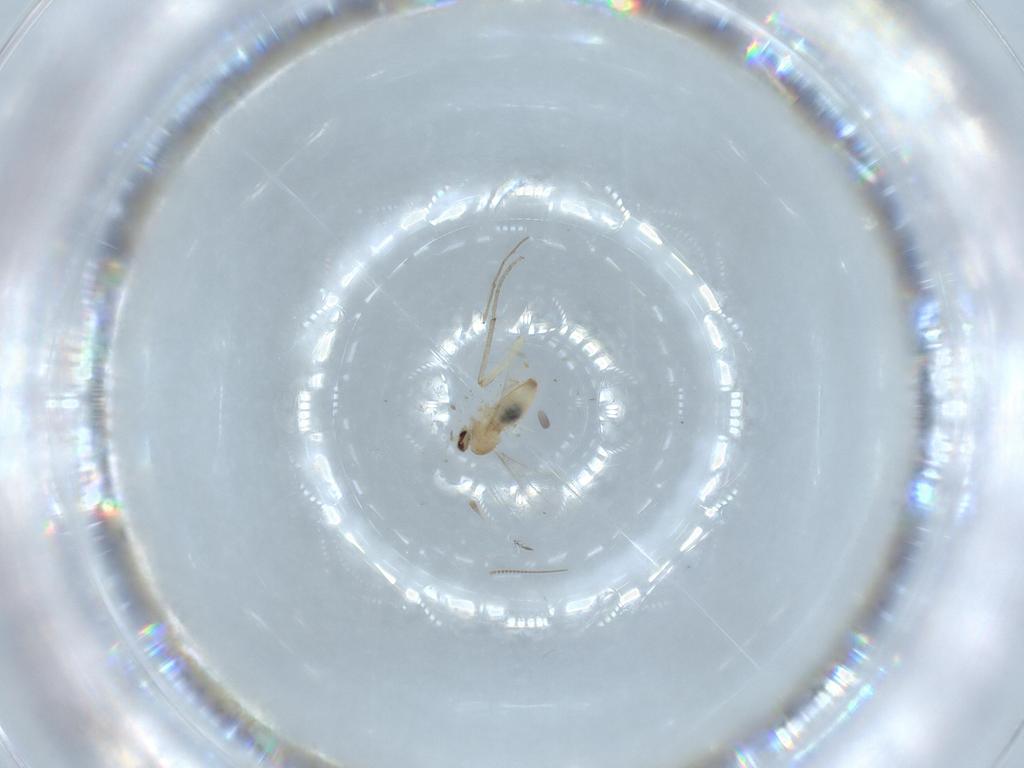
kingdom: Animalia
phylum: Arthropoda
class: Insecta
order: Diptera
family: Cecidomyiidae
